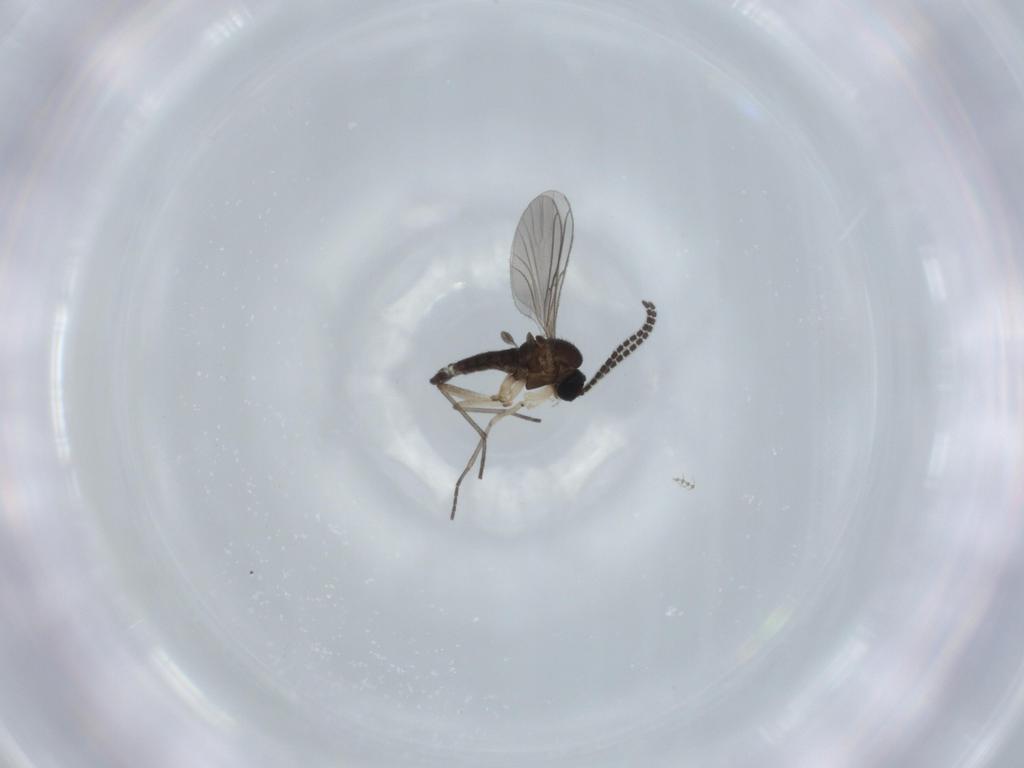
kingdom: Animalia
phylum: Arthropoda
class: Insecta
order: Diptera
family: Sciaridae
